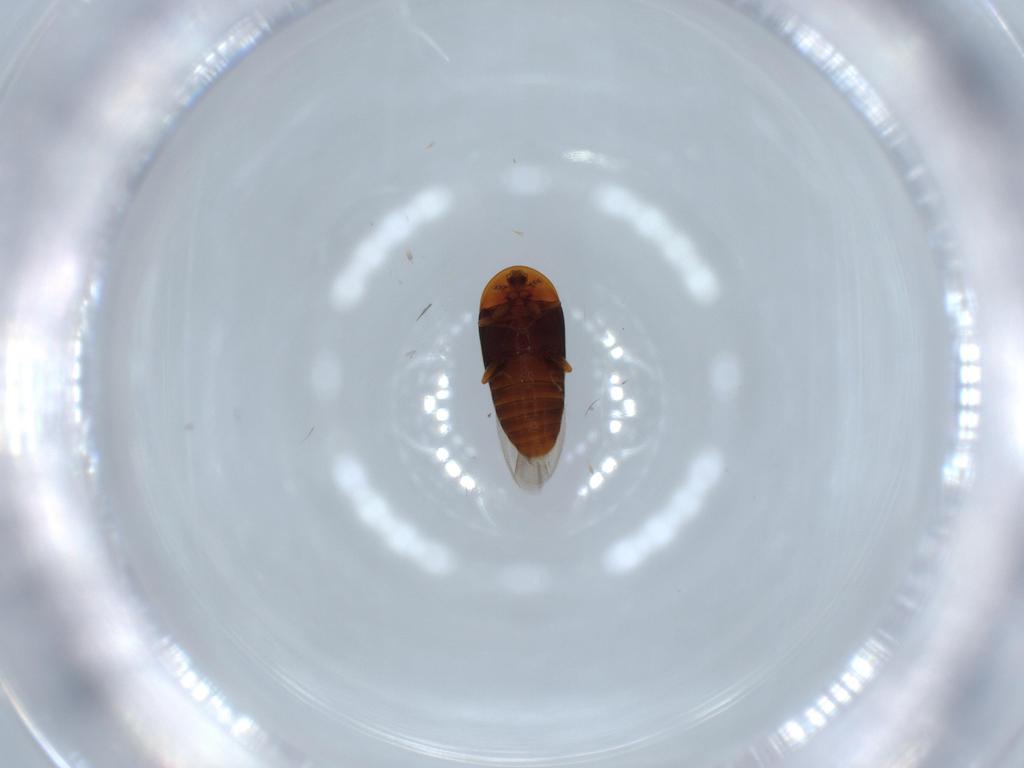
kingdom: Animalia
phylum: Arthropoda
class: Insecta
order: Coleoptera
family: Corylophidae
